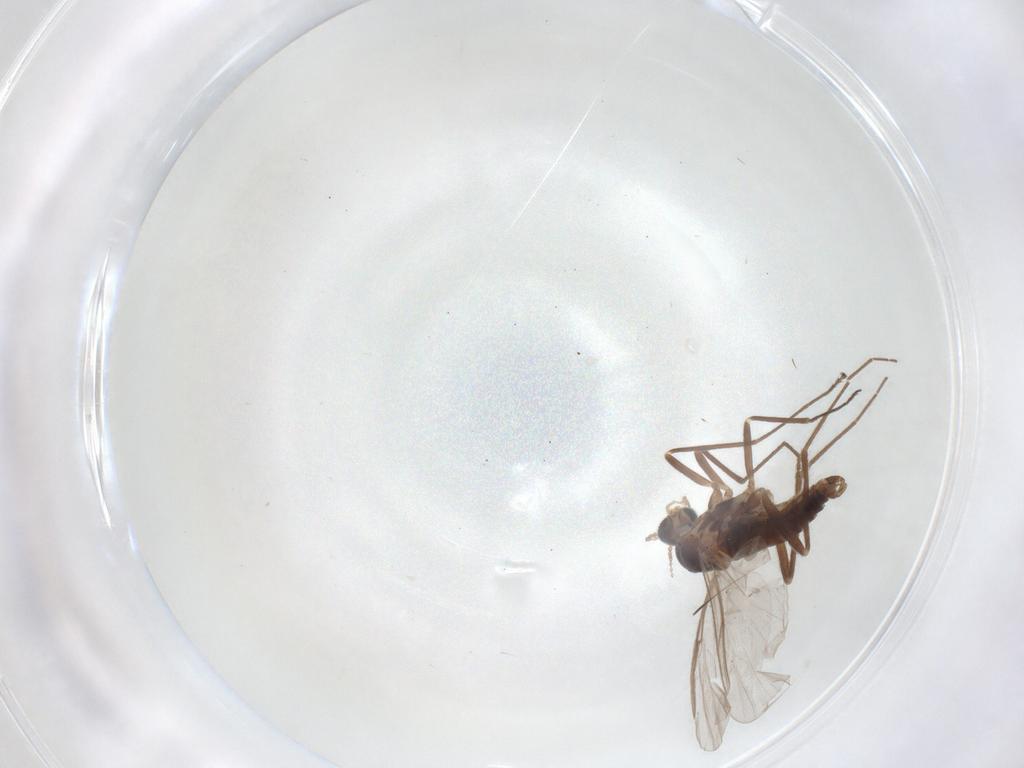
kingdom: Animalia
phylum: Arthropoda
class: Insecta
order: Diptera
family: Cecidomyiidae
